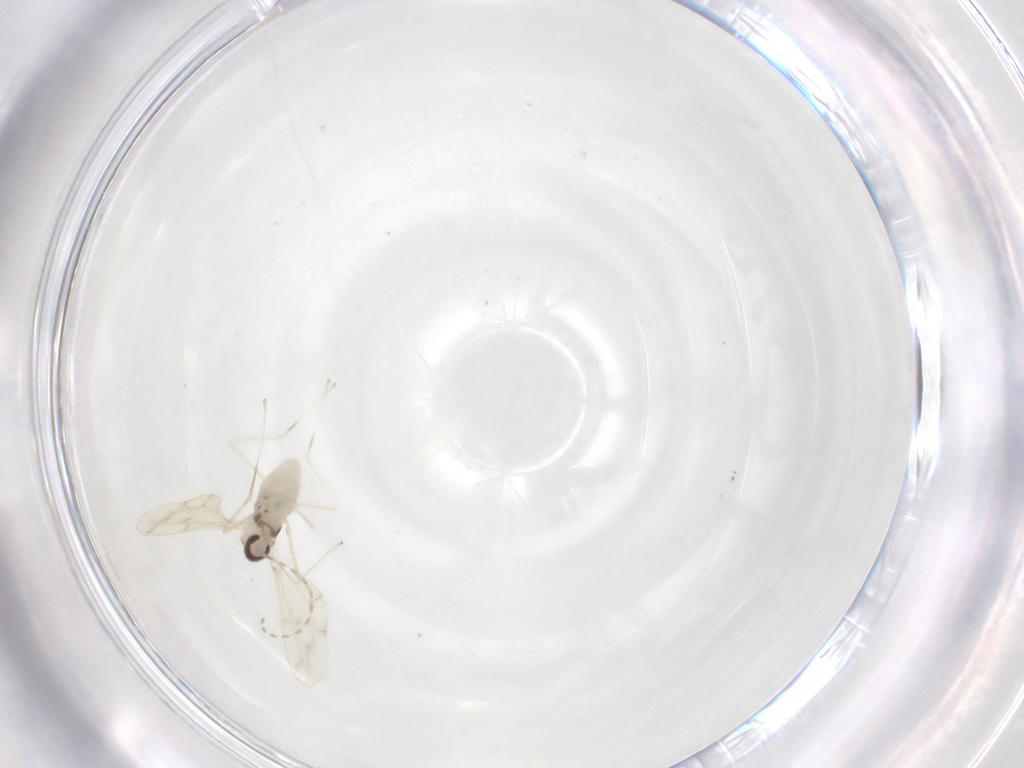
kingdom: Animalia
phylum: Arthropoda
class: Insecta
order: Diptera
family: Cecidomyiidae
